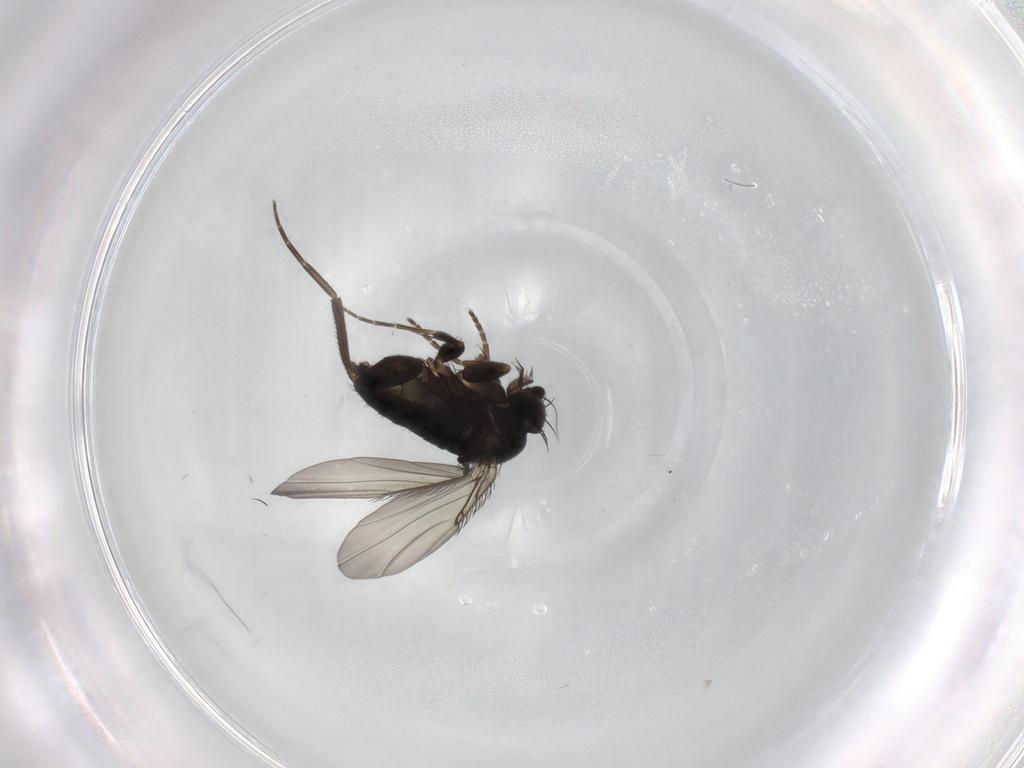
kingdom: Animalia
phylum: Arthropoda
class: Insecta
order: Diptera
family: Phoridae
